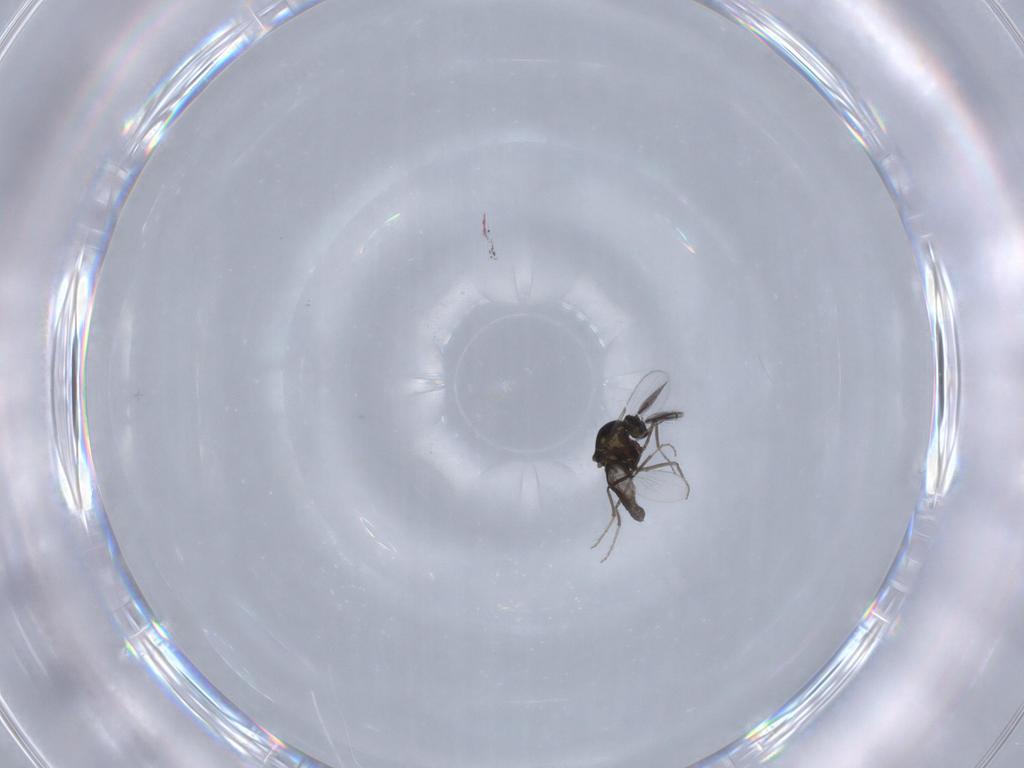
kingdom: Animalia
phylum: Arthropoda
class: Insecta
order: Diptera
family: Ceratopogonidae
